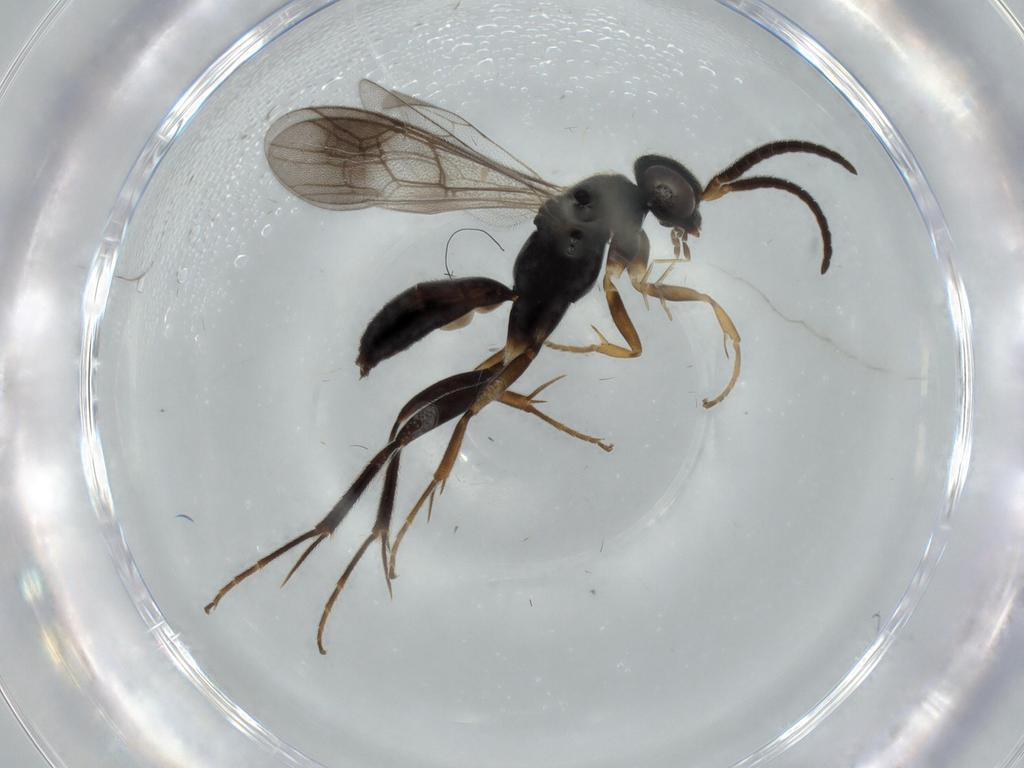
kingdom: Animalia
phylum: Arthropoda
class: Insecta
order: Hymenoptera
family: Pompilidae
